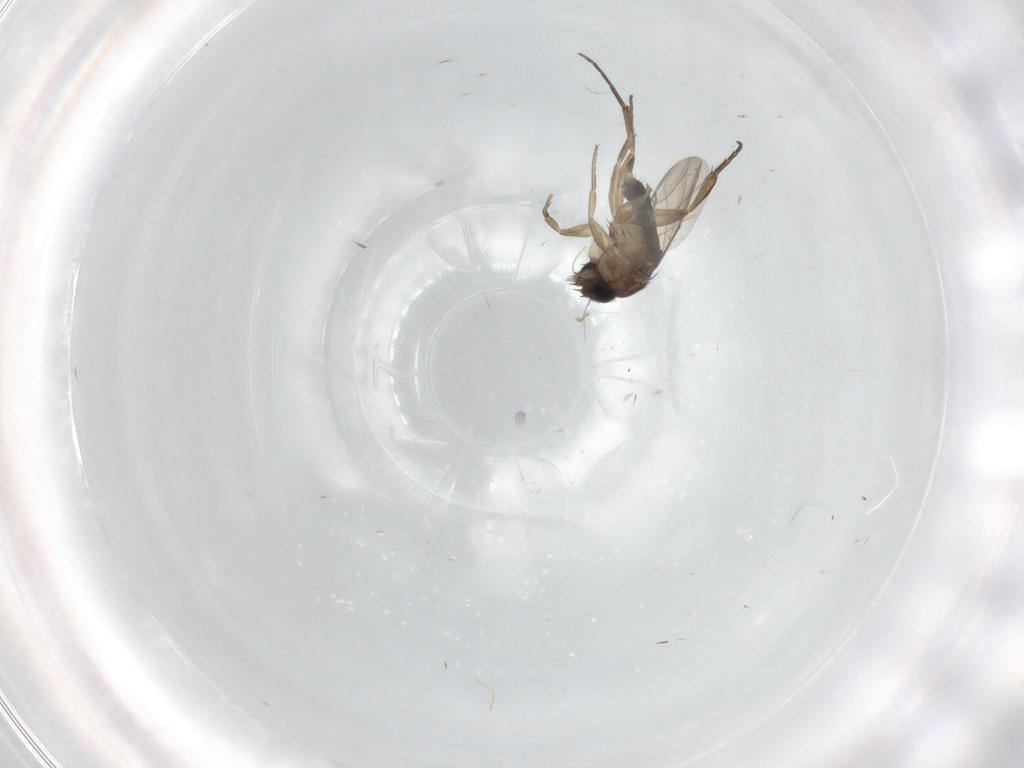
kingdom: Animalia
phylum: Arthropoda
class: Insecta
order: Diptera
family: Phoridae
